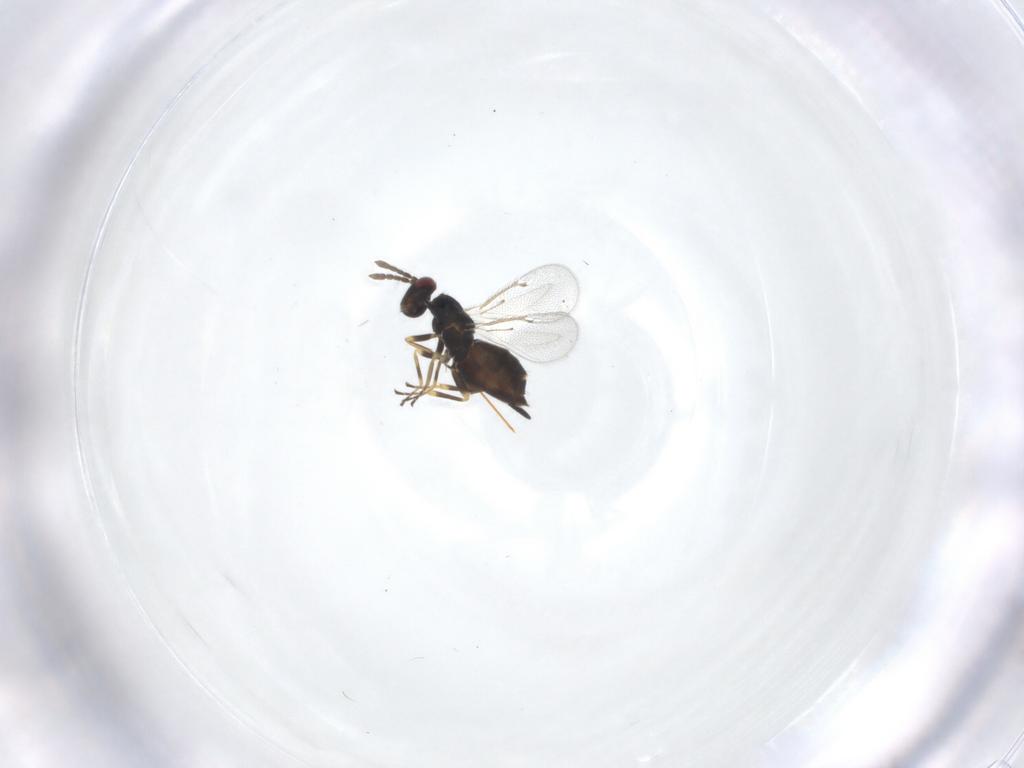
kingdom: Animalia
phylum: Arthropoda
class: Insecta
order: Hymenoptera
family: Eulophidae
